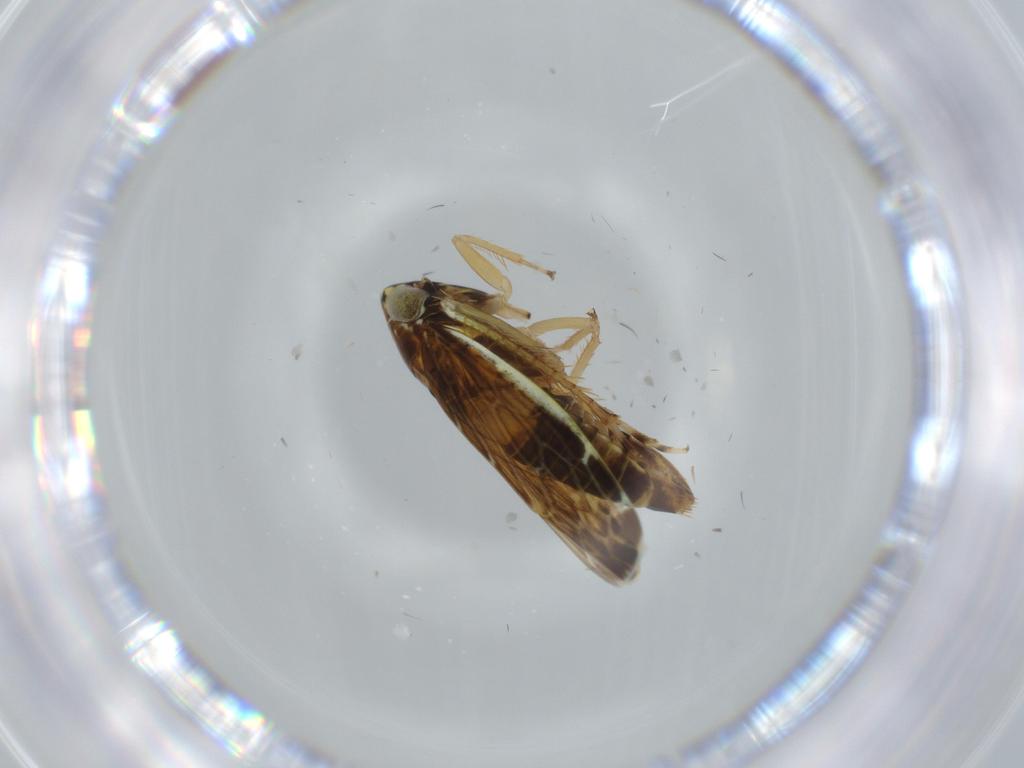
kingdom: Animalia
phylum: Arthropoda
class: Insecta
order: Hemiptera
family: Cicadellidae
